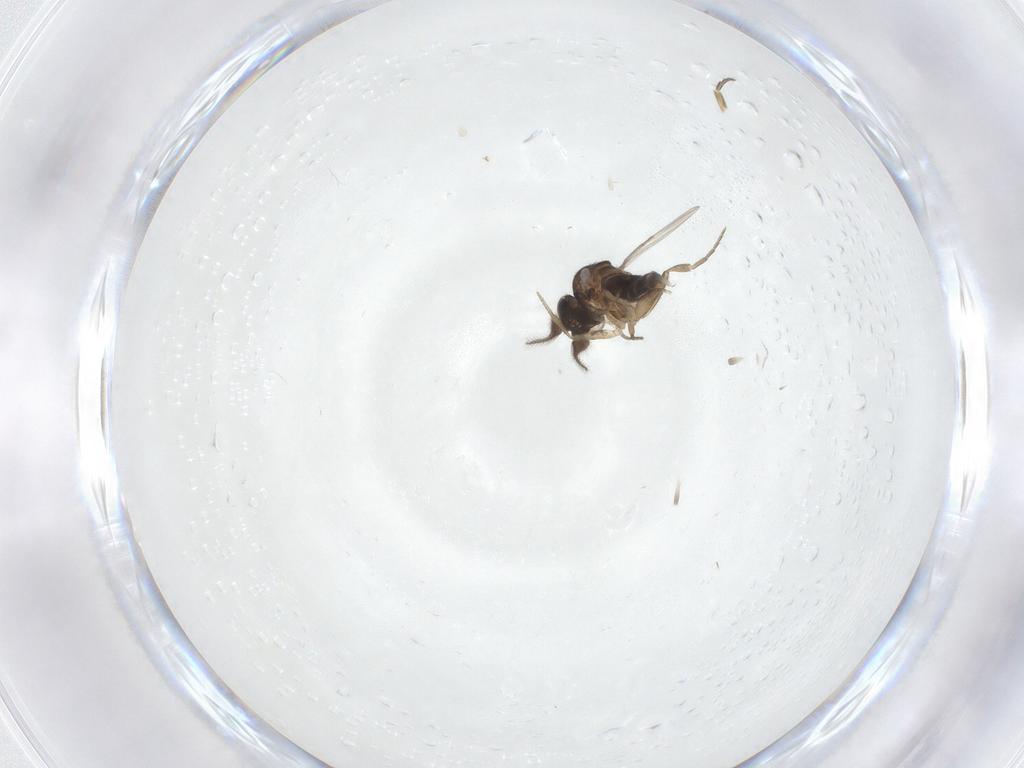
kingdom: Animalia
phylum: Arthropoda
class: Insecta
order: Diptera
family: Phoridae
